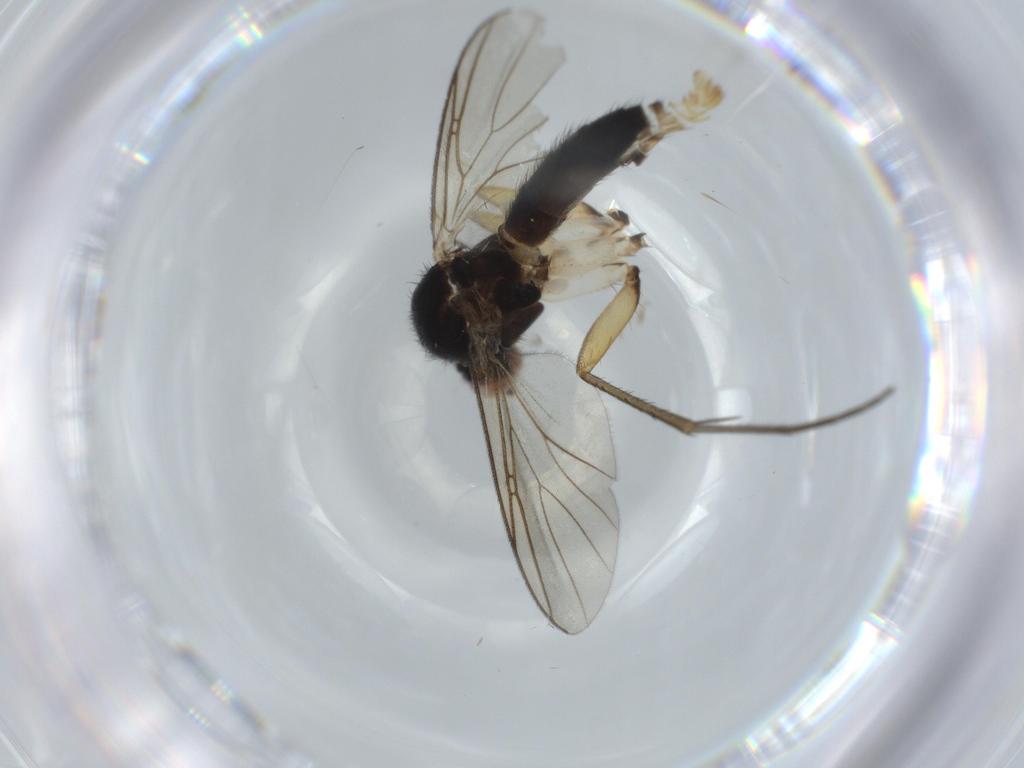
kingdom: Animalia
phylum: Arthropoda
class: Insecta
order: Diptera
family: Mycetophilidae
